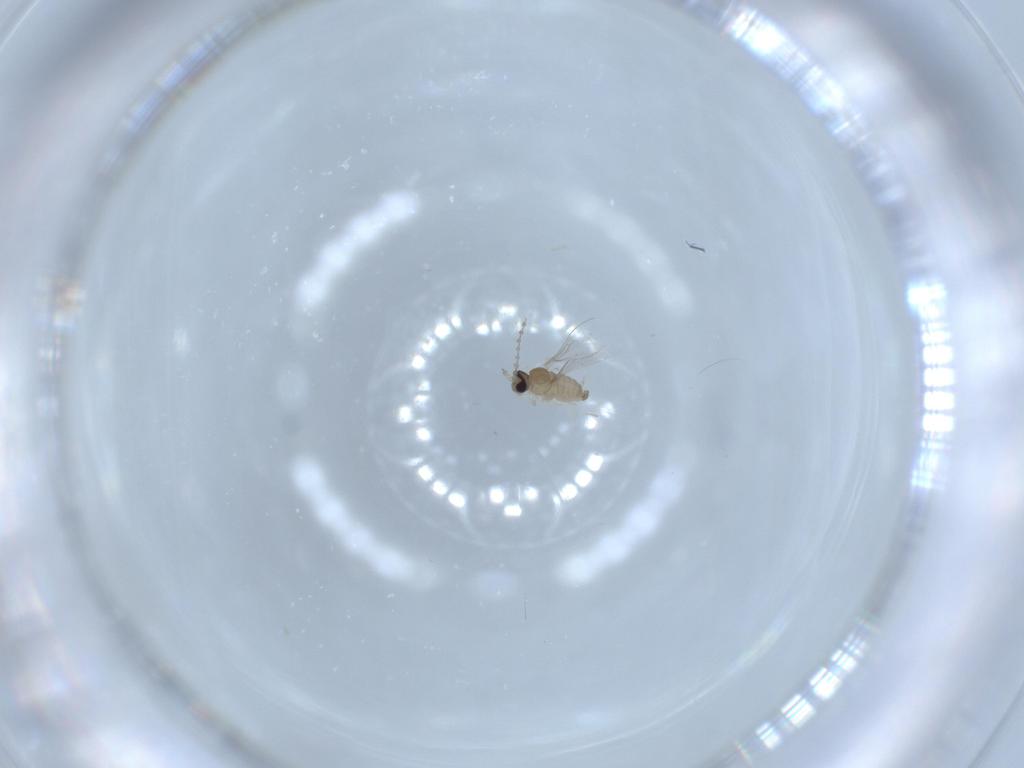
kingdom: Animalia
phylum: Arthropoda
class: Insecta
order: Diptera
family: Cecidomyiidae
